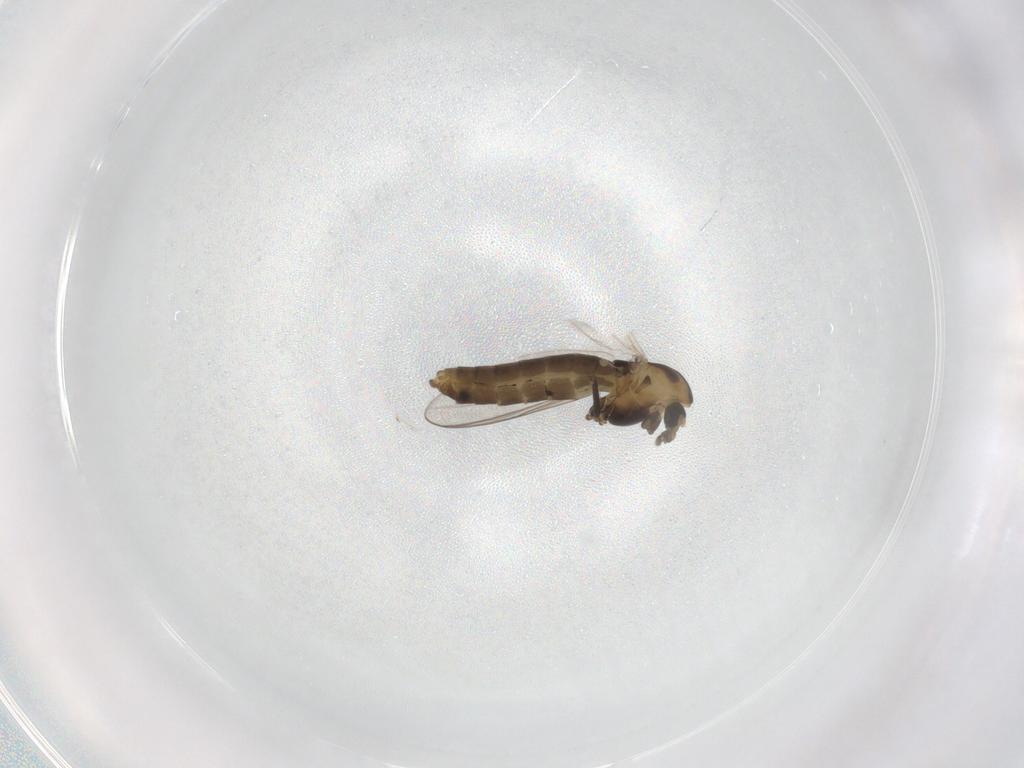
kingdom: Animalia
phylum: Arthropoda
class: Insecta
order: Diptera
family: Chironomidae
